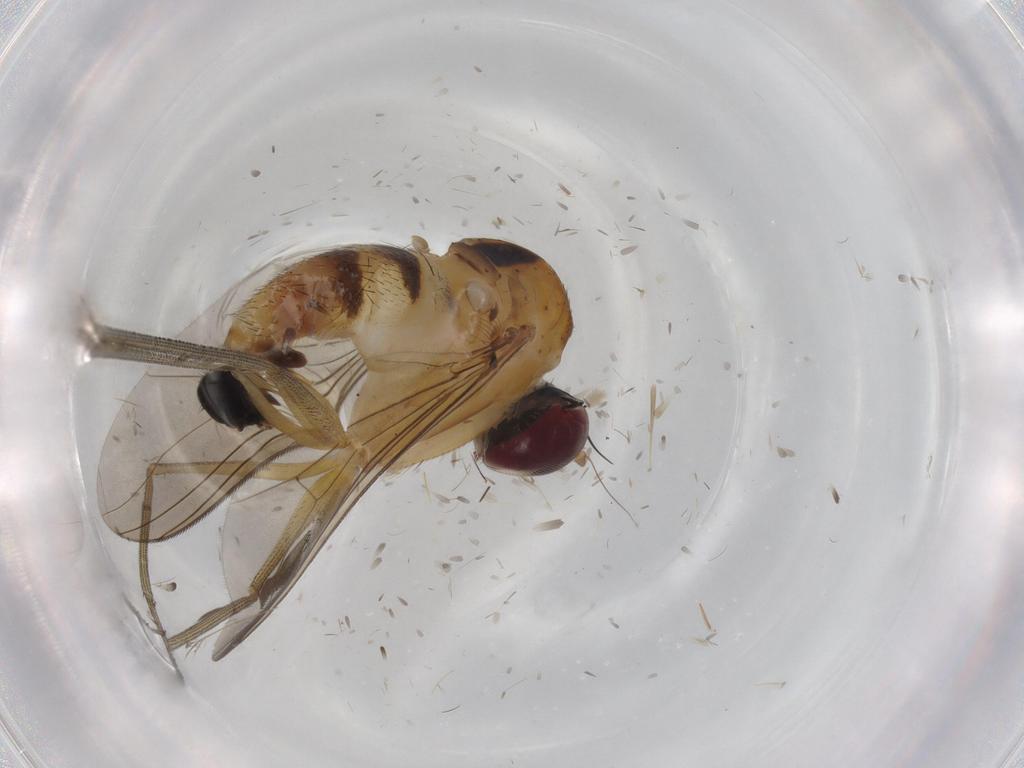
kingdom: Animalia
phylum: Arthropoda
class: Insecta
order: Diptera
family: Dolichopodidae
